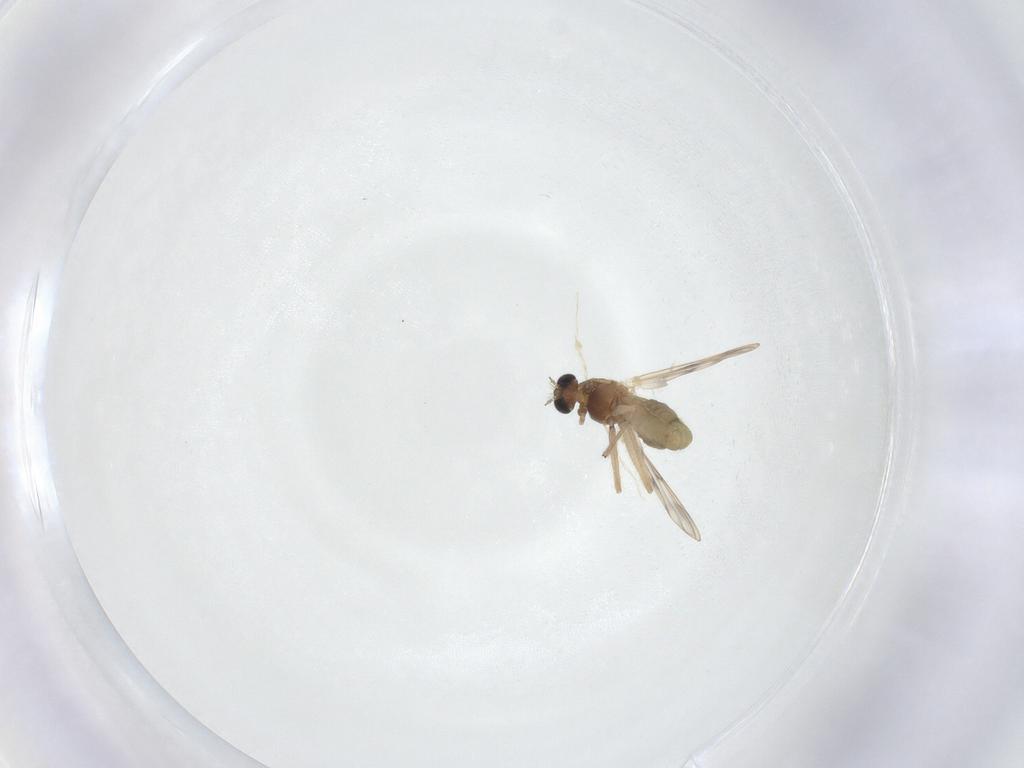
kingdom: Animalia
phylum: Arthropoda
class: Insecta
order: Diptera
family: Chironomidae
